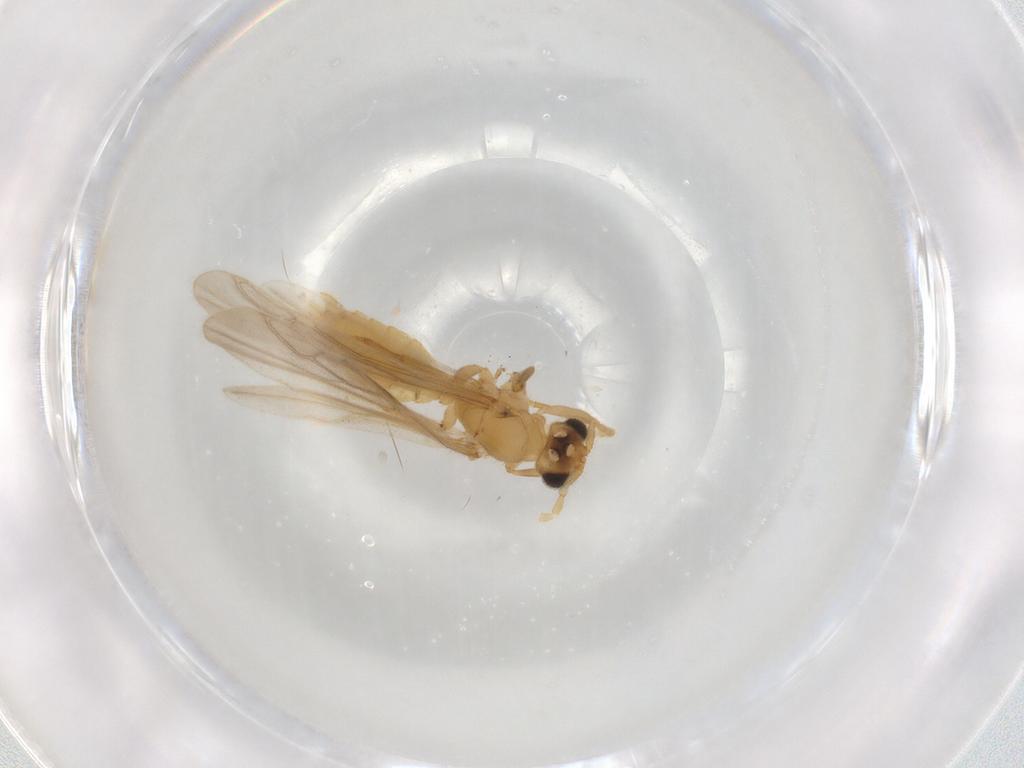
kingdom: Animalia
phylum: Arthropoda
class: Insecta
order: Hymenoptera
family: Formicidae
